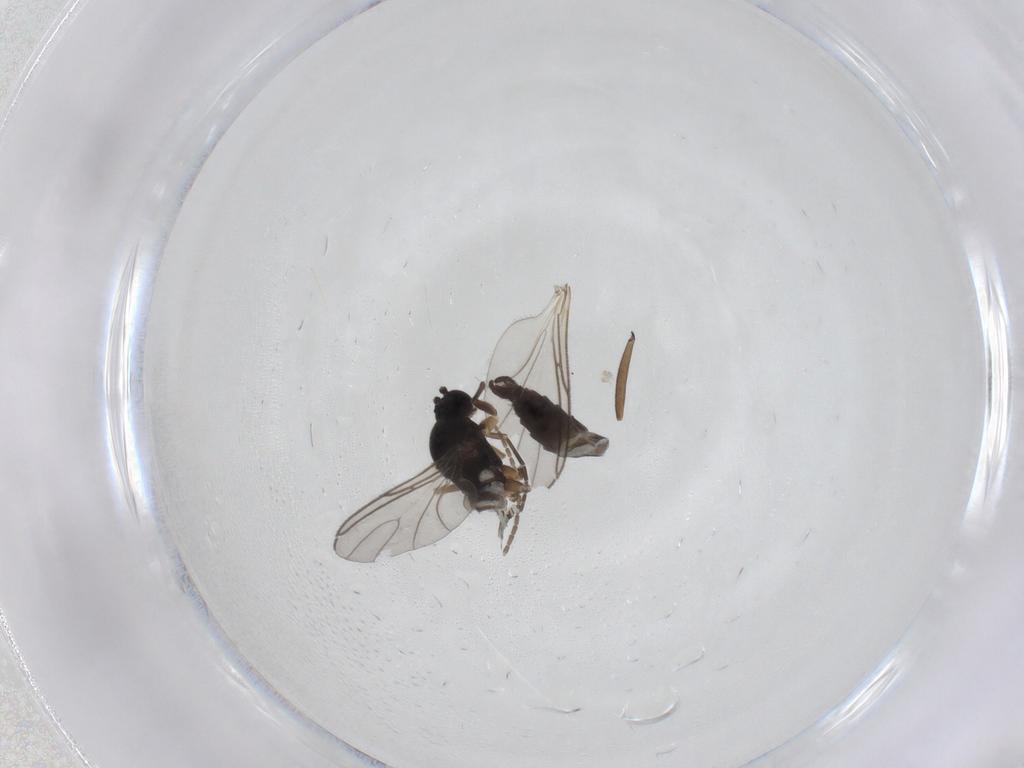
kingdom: Animalia
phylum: Arthropoda
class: Insecta
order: Diptera
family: Sciaridae
